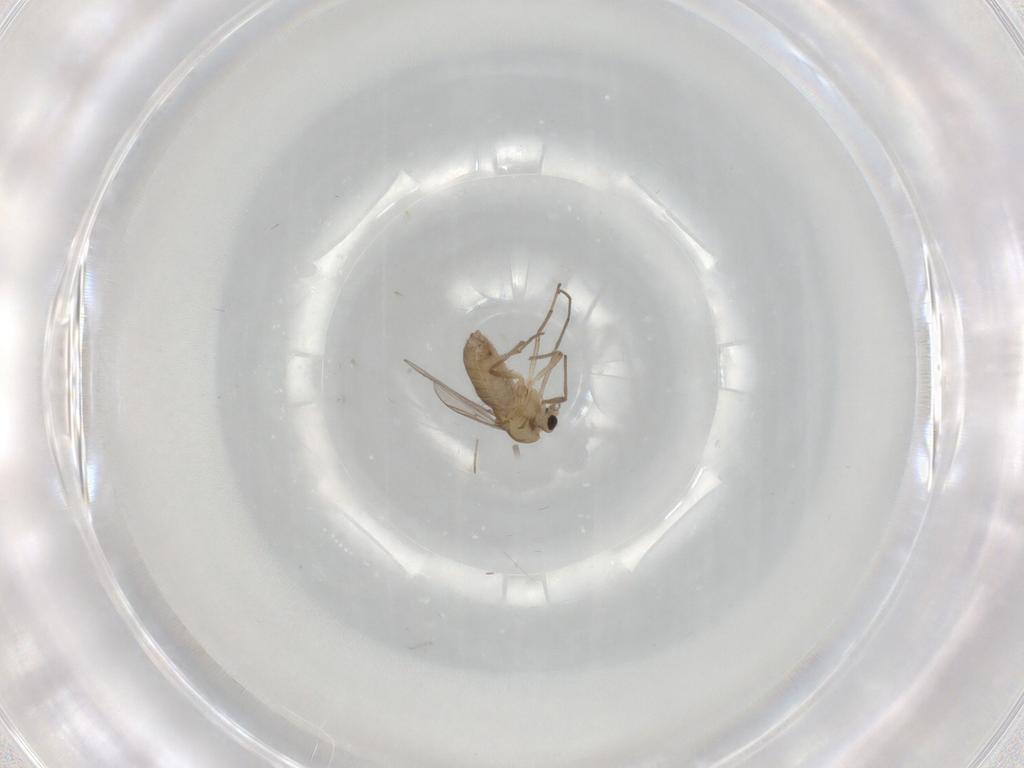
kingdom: Animalia
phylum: Arthropoda
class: Insecta
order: Diptera
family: Chironomidae
